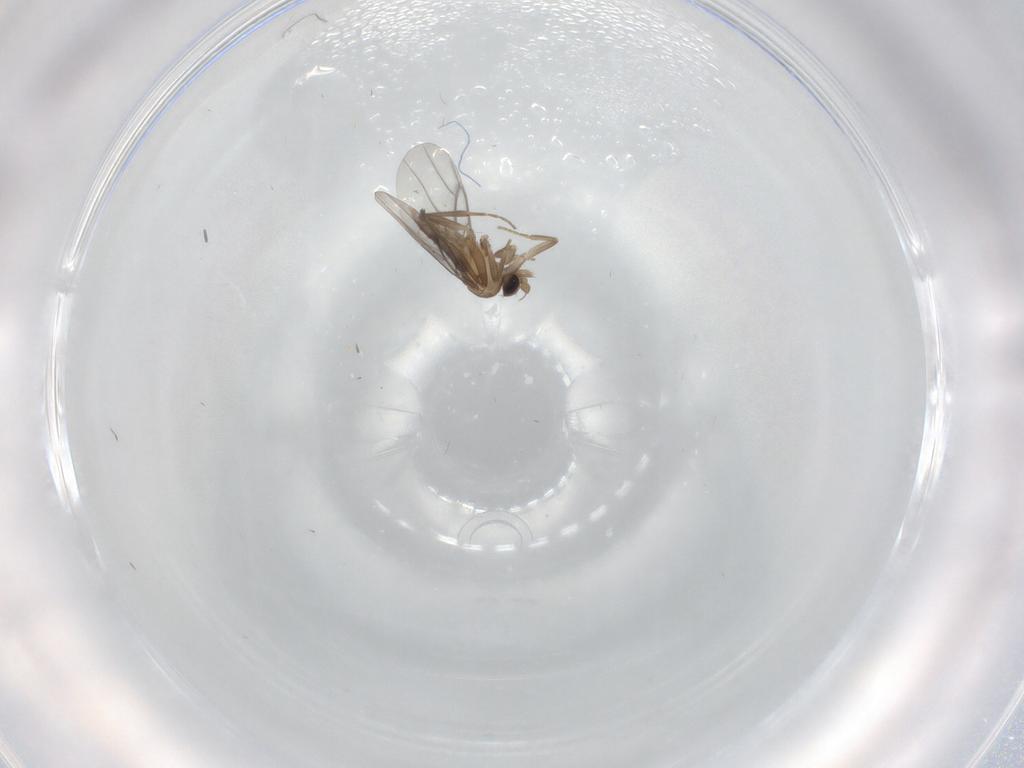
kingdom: Animalia
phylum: Arthropoda
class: Insecta
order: Diptera
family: Chironomidae
